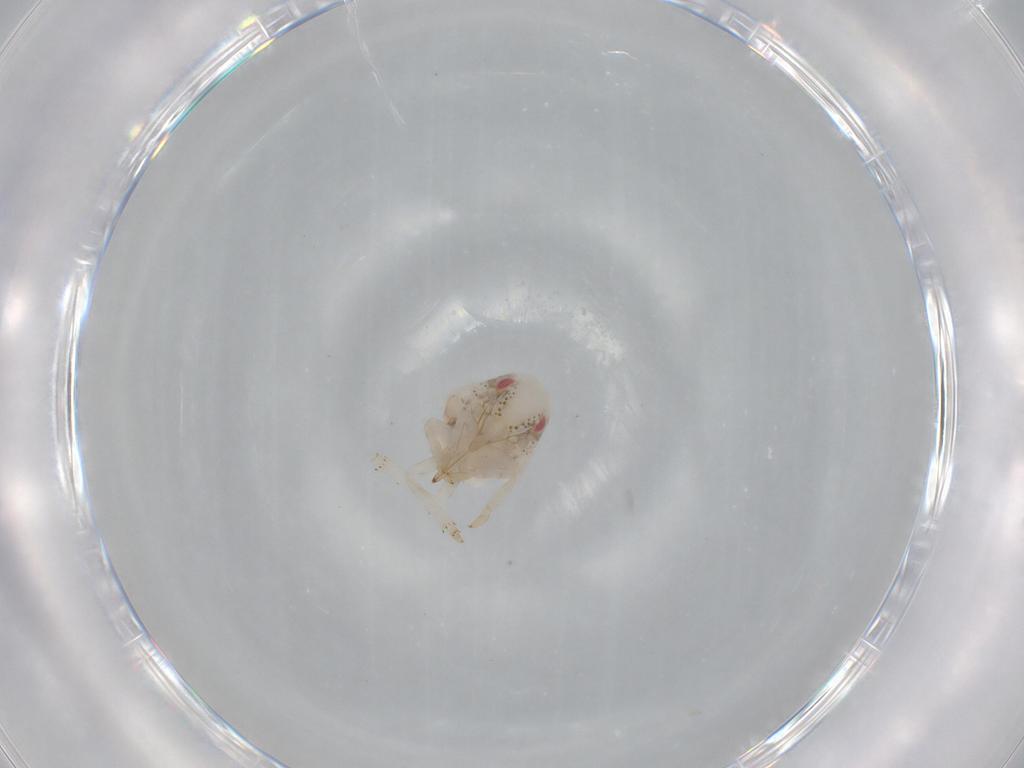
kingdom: Animalia
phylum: Arthropoda
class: Insecta
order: Hemiptera
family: Acanaloniidae
